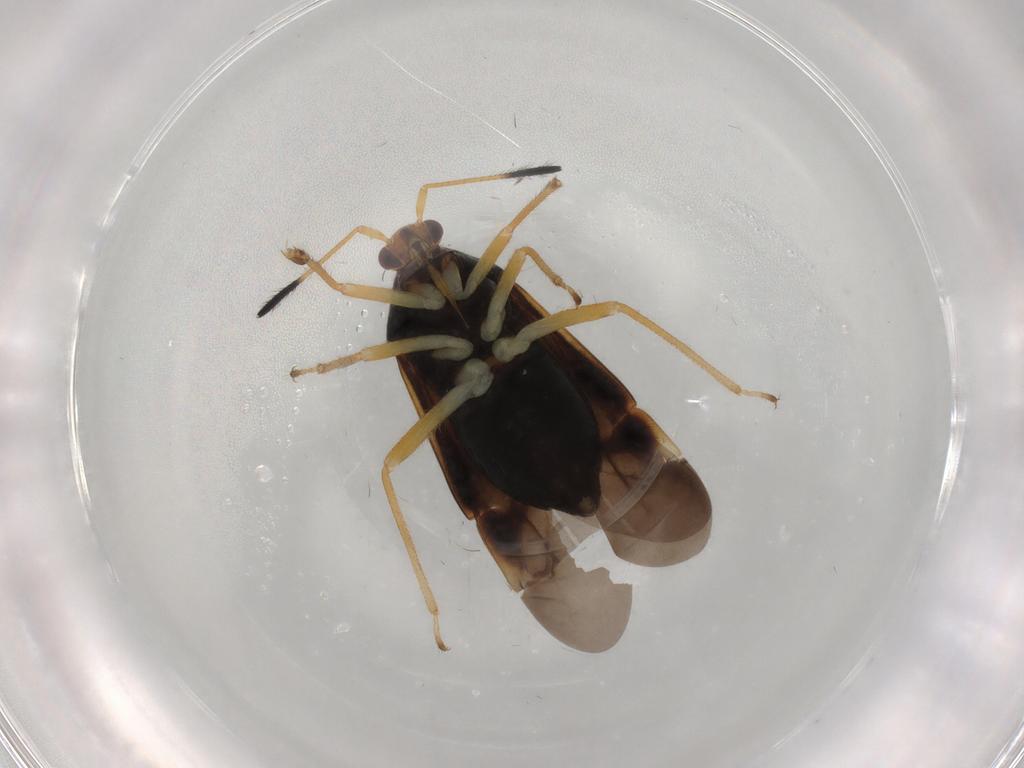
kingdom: Animalia
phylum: Arthropoda
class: Insecta
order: Hemiptera
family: Miridae
